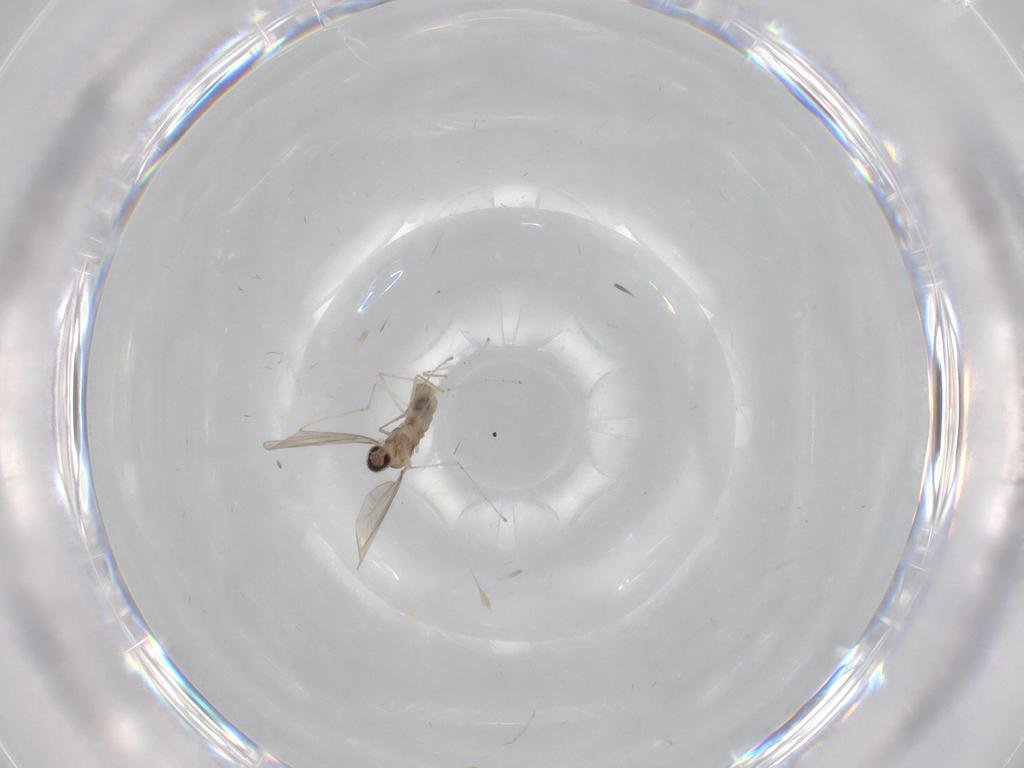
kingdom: Animalia
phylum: Arthropoda
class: Insecta
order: Diptera
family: Cecidomyiidae
